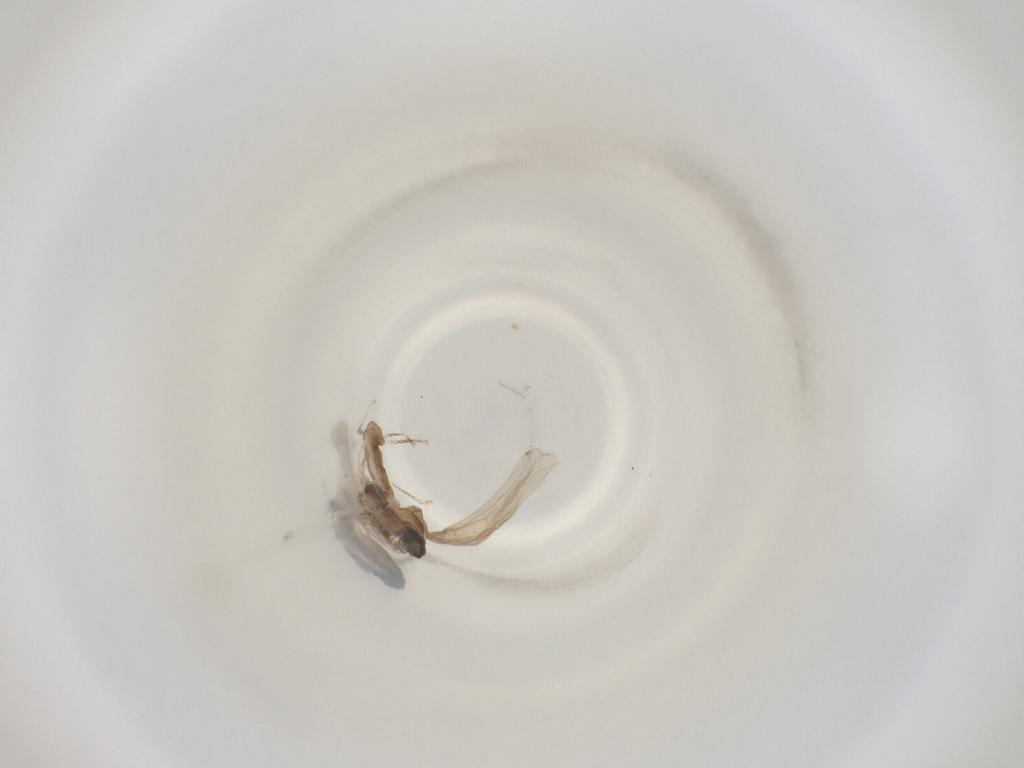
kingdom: Animalia
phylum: Arthropoda
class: Insecta
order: Diptera
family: Cecidomyiidae
